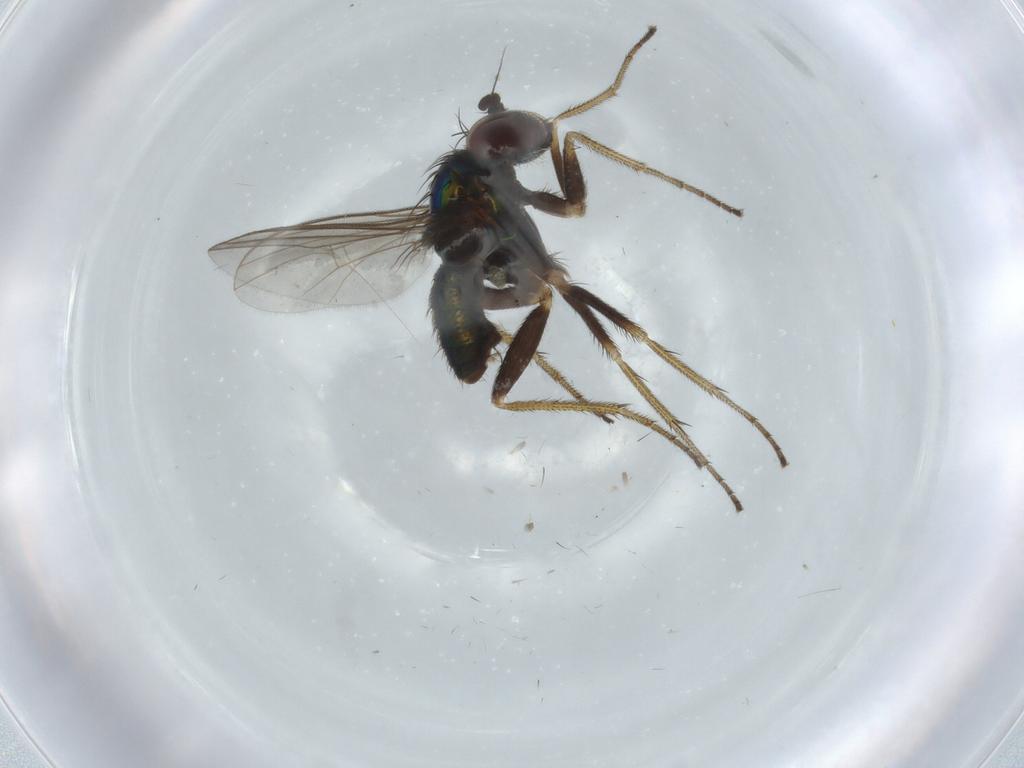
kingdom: Animalia
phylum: Arthropoda
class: Insecta
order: Diptera
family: Dolichopodidae
